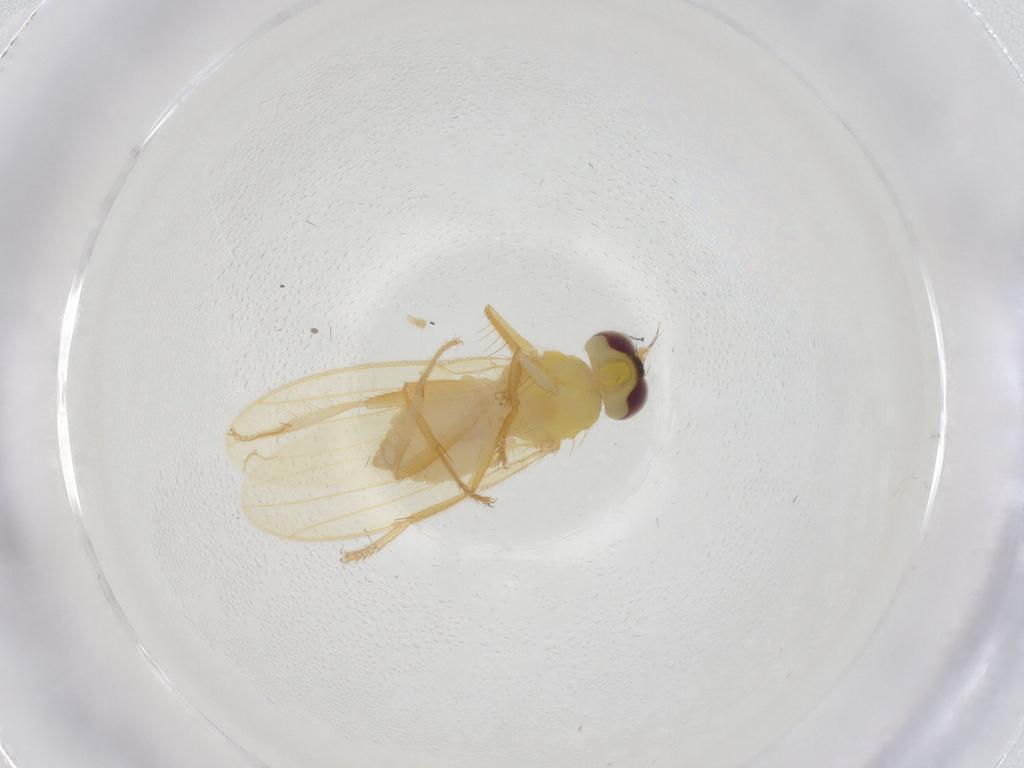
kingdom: Animalia
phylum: Arthropoda
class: Insecta
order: Diptera
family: Periscelididae
